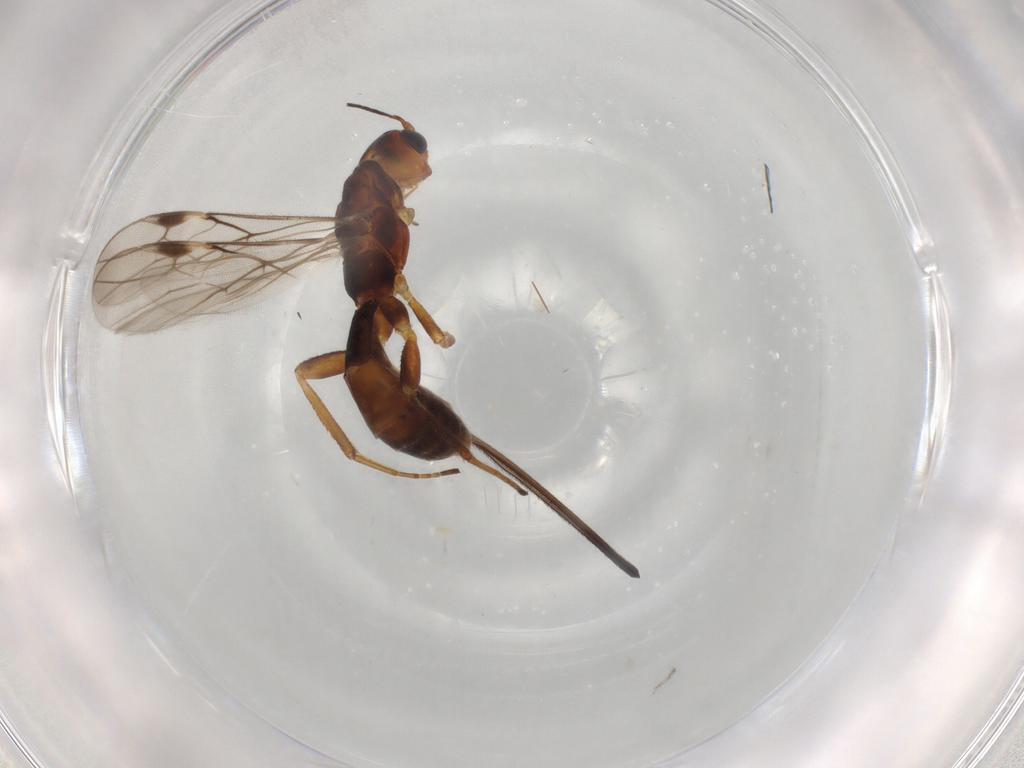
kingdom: Animalia
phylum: Arthropoda
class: Insecta
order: Hymenoptera
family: Braconidae
